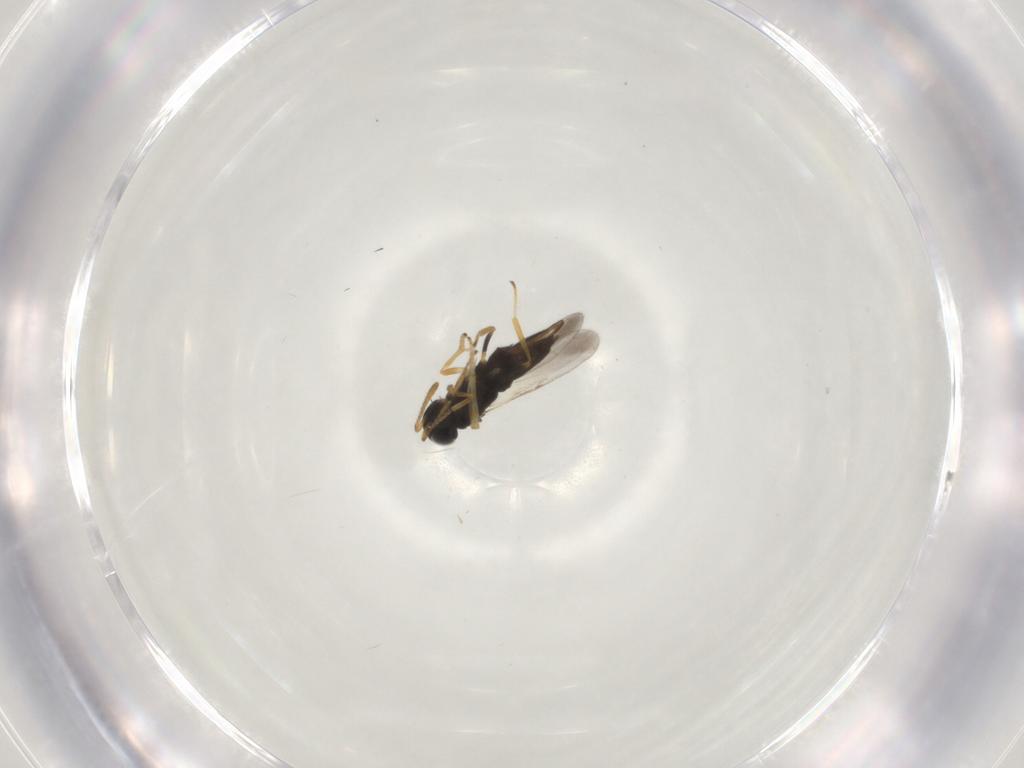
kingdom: Animalia
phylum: Arthropoda
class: Insecta
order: Hymenoptera
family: Encyrtidae
